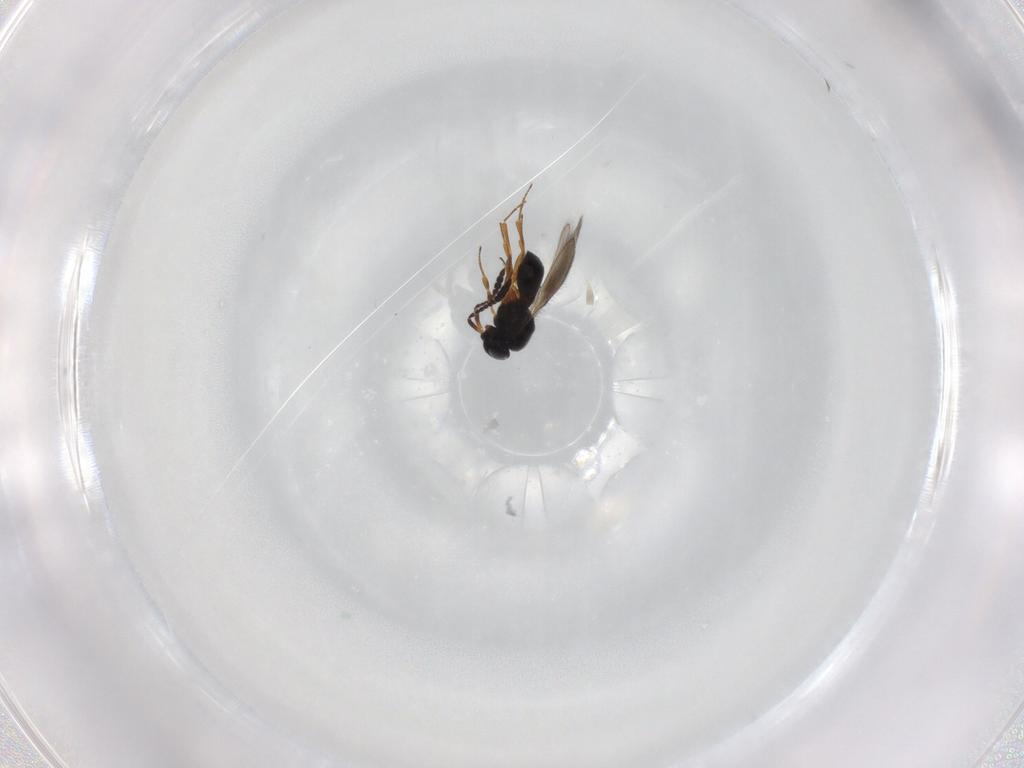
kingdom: Animalia
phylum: Arthropoda
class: Insecta
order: Hymenoptera
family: Scelionidae
